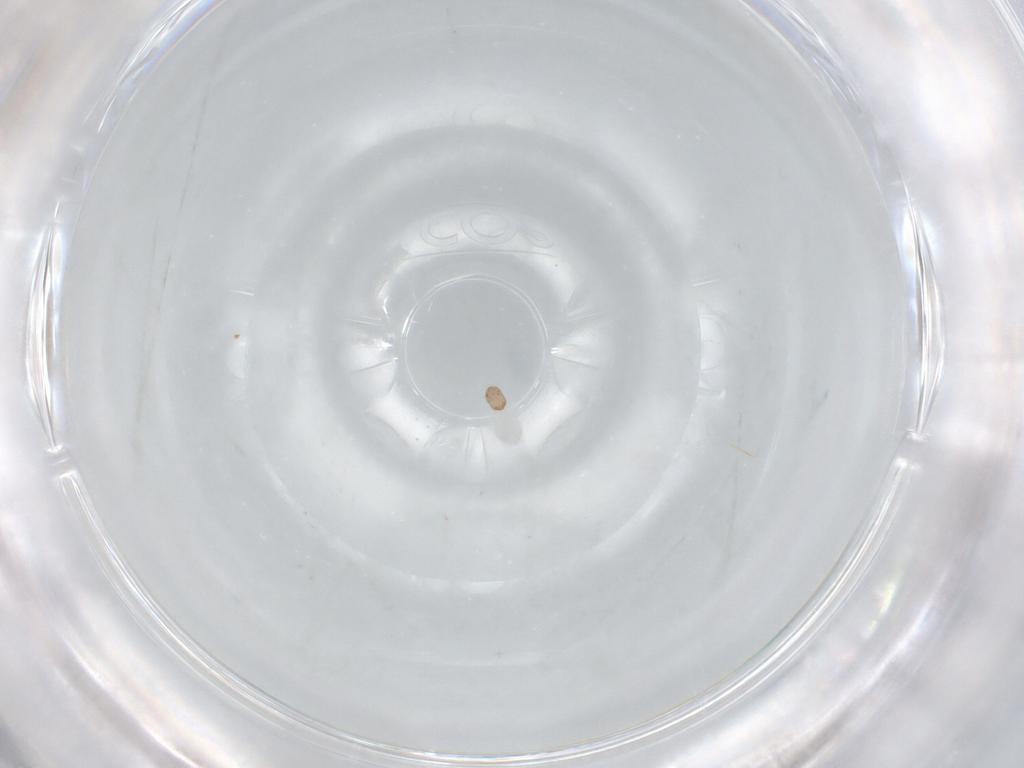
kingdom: Animalia
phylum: Arthropoda
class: Arachnida
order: Sarcoptiformes
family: Acaridae
